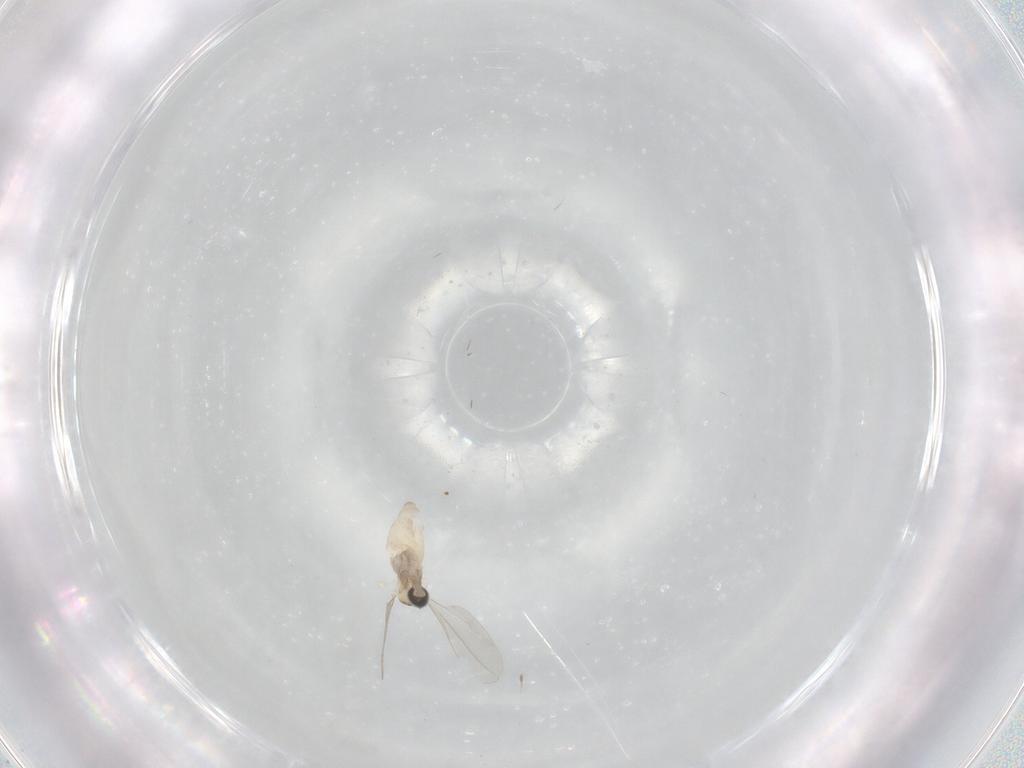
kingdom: Animalia
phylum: Arthropoda
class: Insecta
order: Diptera
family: Cecidomyiidae
